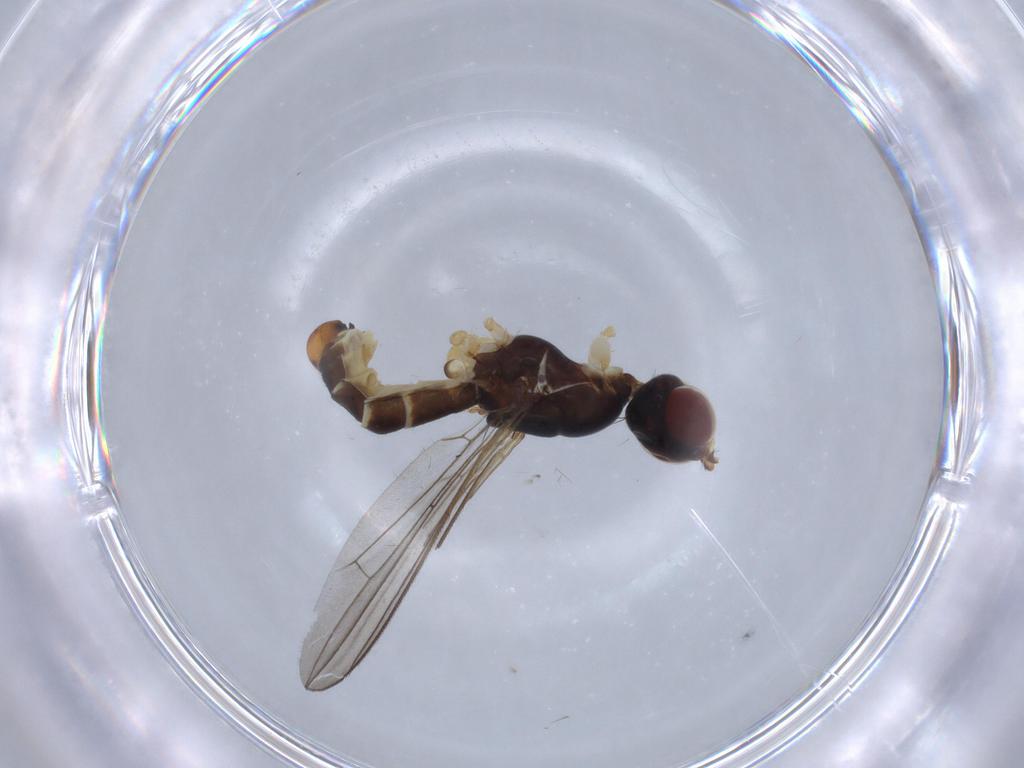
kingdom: Animalia
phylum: Arthropoda
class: Insecta
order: Diptera
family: Micropezidae
